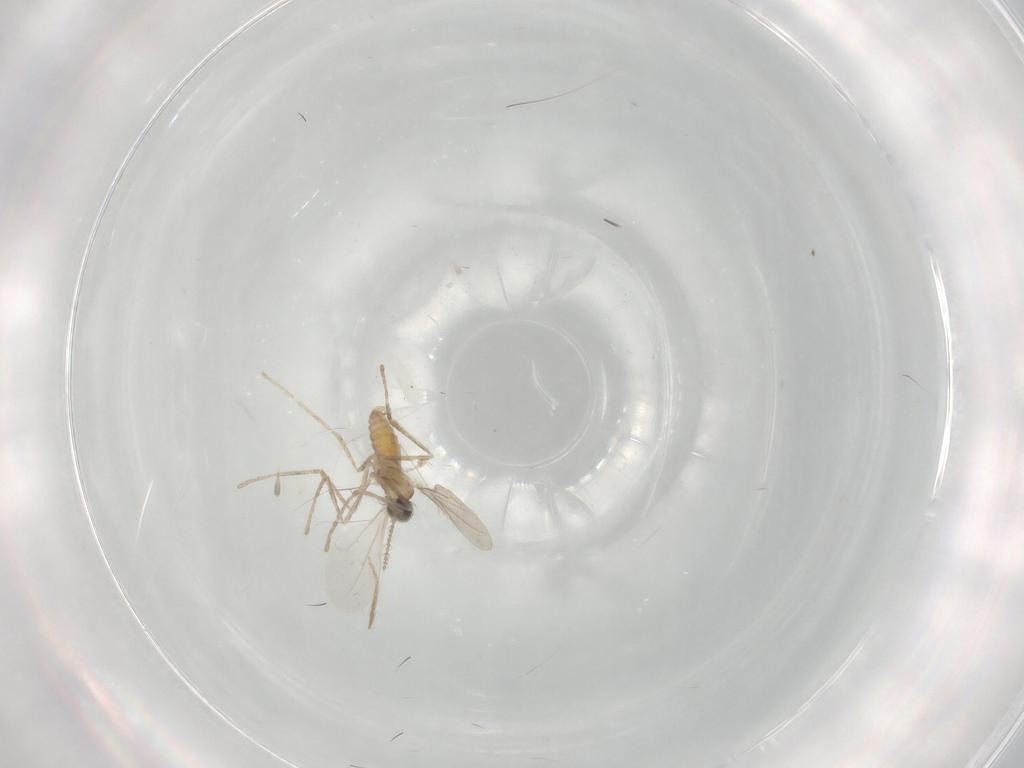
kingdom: Animalia
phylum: Arthropoda
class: Insecta
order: Diptera
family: Cecidomyiidae
